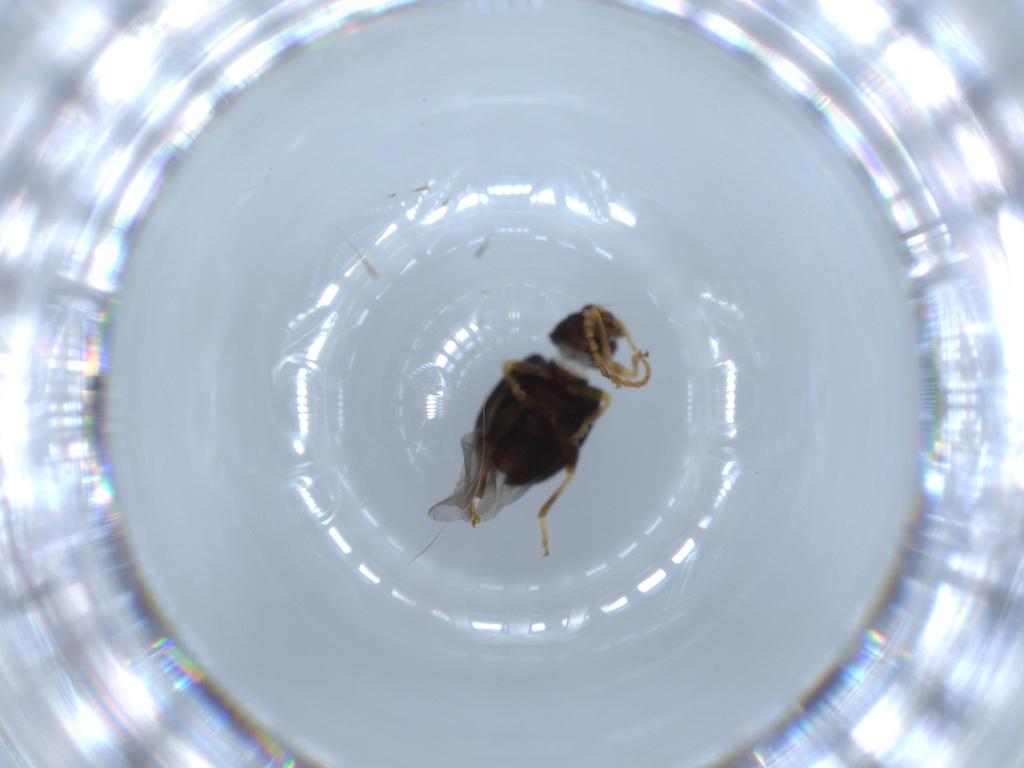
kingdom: Animalia
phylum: Arthropoda
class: Insecta
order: Coleoptera
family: Chrysomelidae
